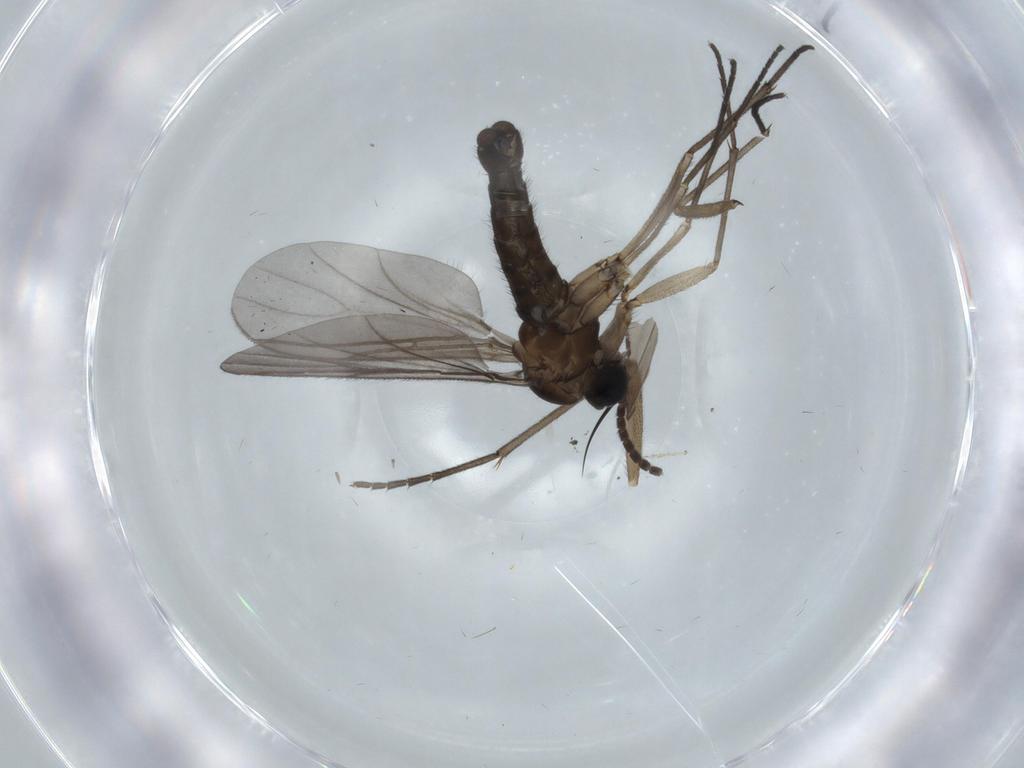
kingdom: Animalia
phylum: Arthropoda
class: Insecta
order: Diptera
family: Sciaridae
